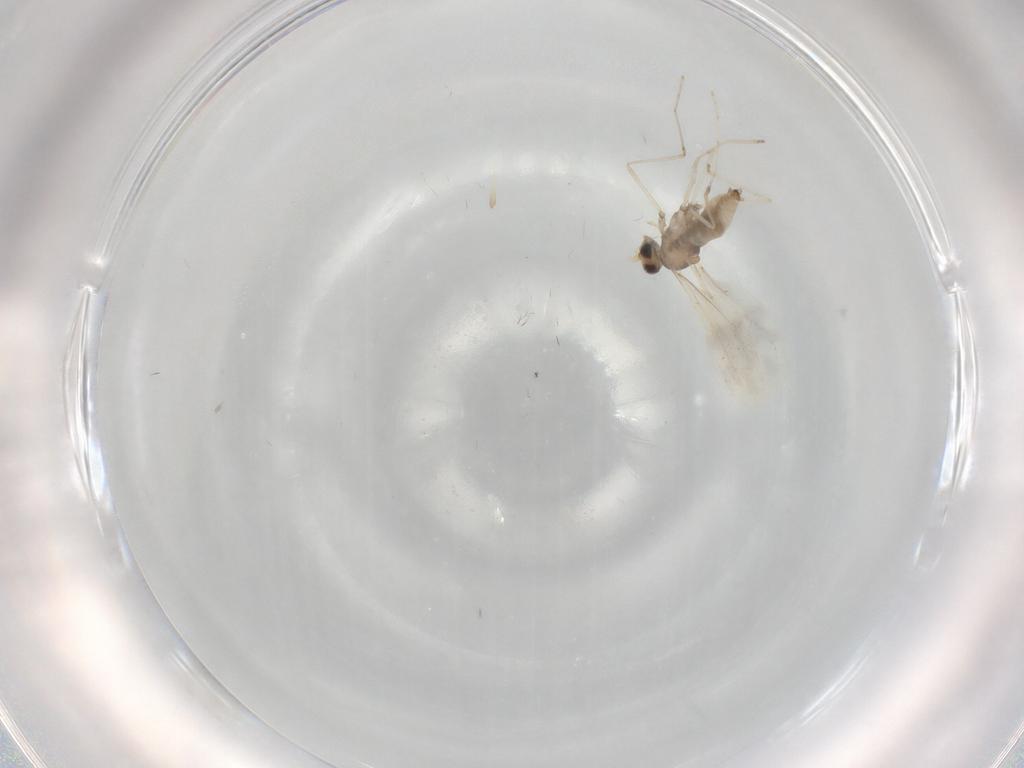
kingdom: Animalia
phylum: Arthropoda
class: Insecta
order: Diptera
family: Cecidomyiidae
